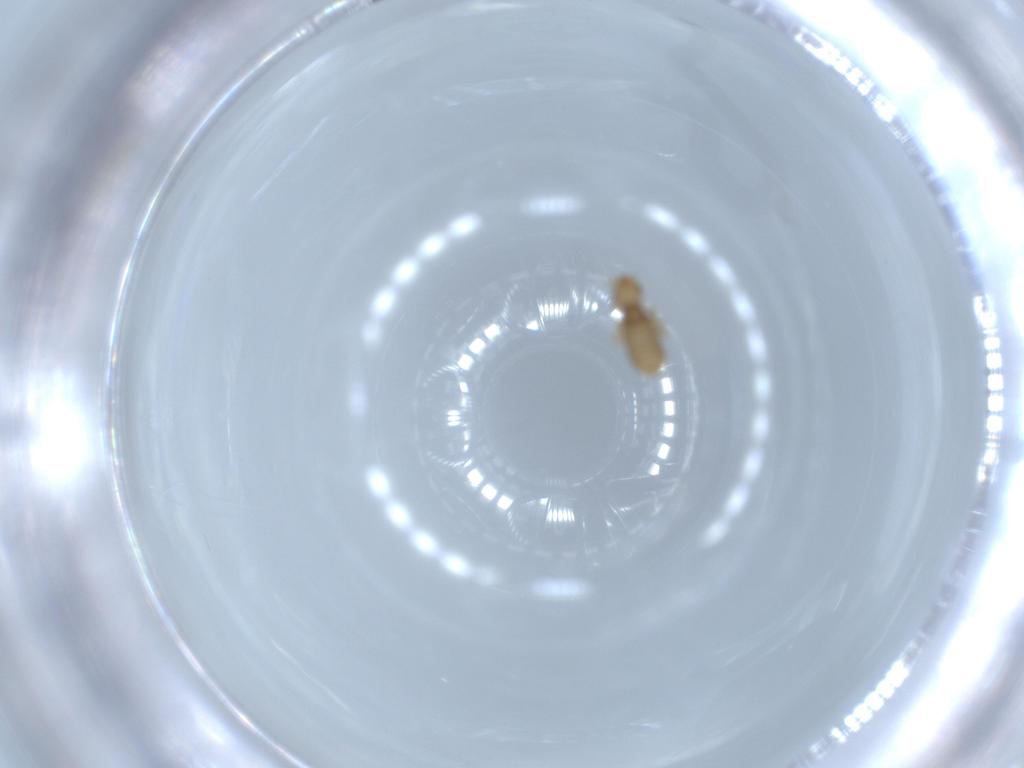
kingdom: Animalia
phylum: Arthropoda
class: Insecta
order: Psocodea
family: Liposcelididae
